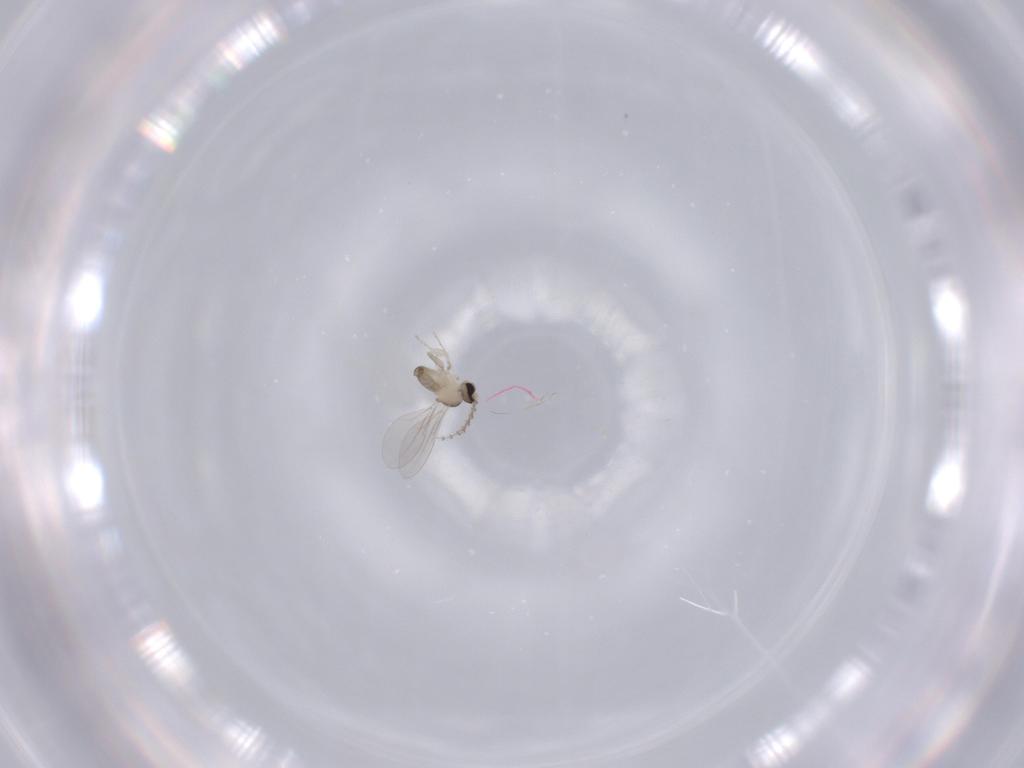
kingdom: Animalia
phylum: Arthropoda
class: Insecta
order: Diptera
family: Cecidomyiidae
